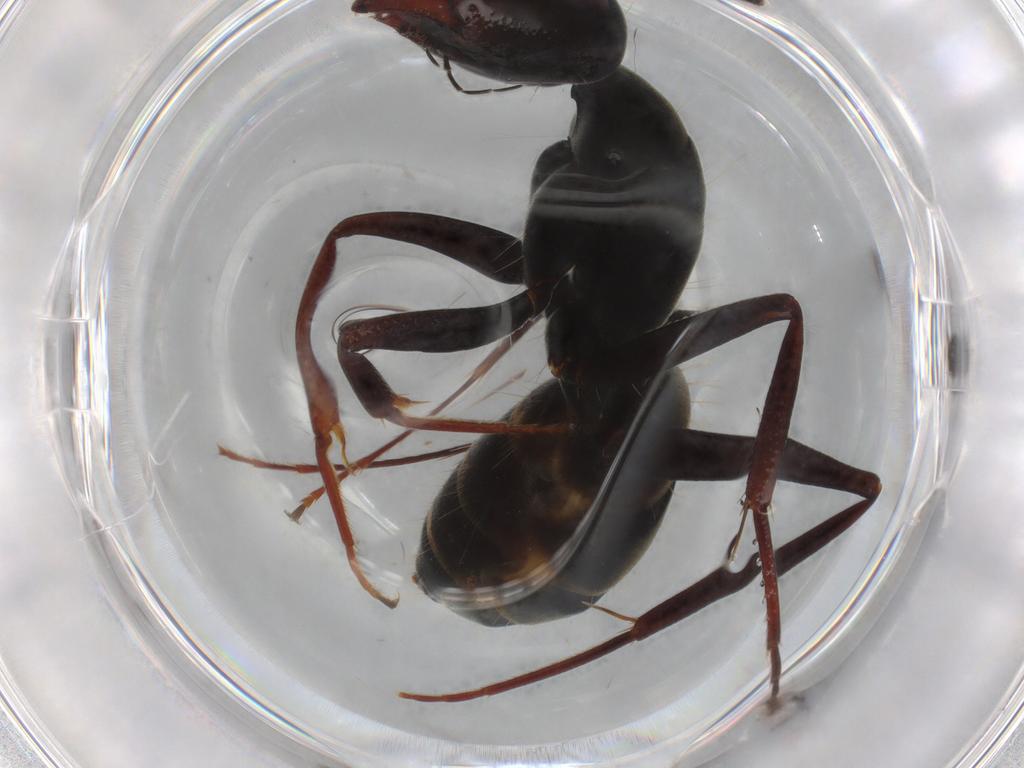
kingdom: Animalia
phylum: Arthropoda
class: Insecta
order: Hymenoptera
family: Formicidae
